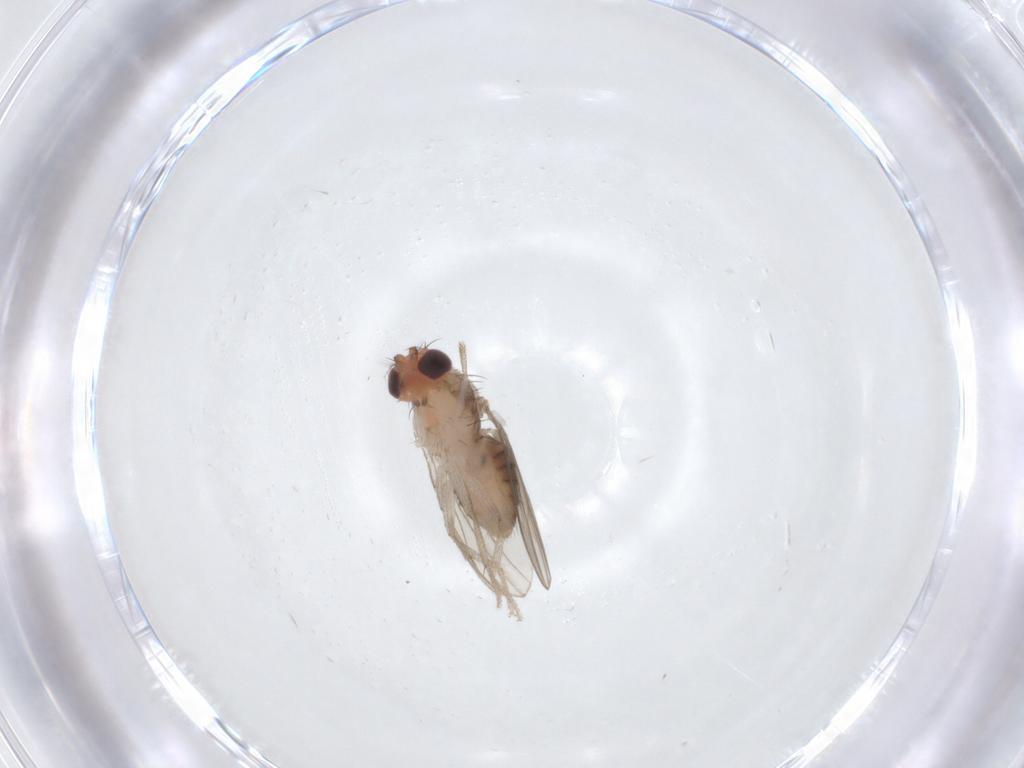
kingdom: Animalia
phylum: Arthropoda
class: Insecta
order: Diptera
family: Drosophilidae
